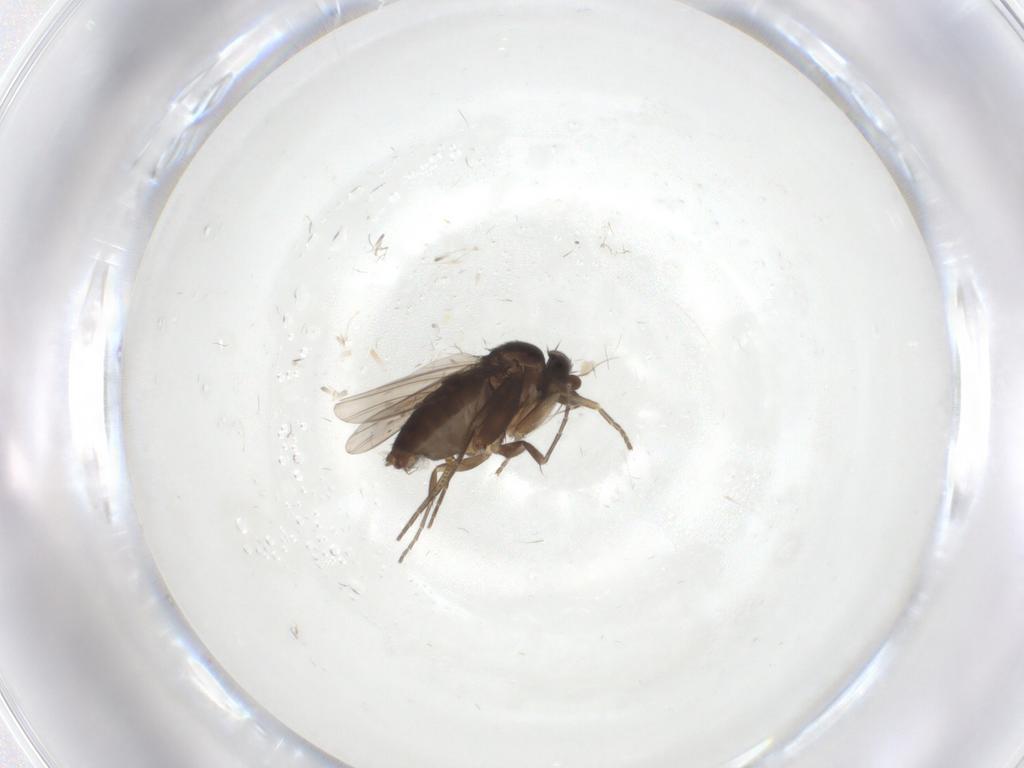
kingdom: Animalia
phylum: Arthropoda
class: Insecta
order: Diptera
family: Phoridae
